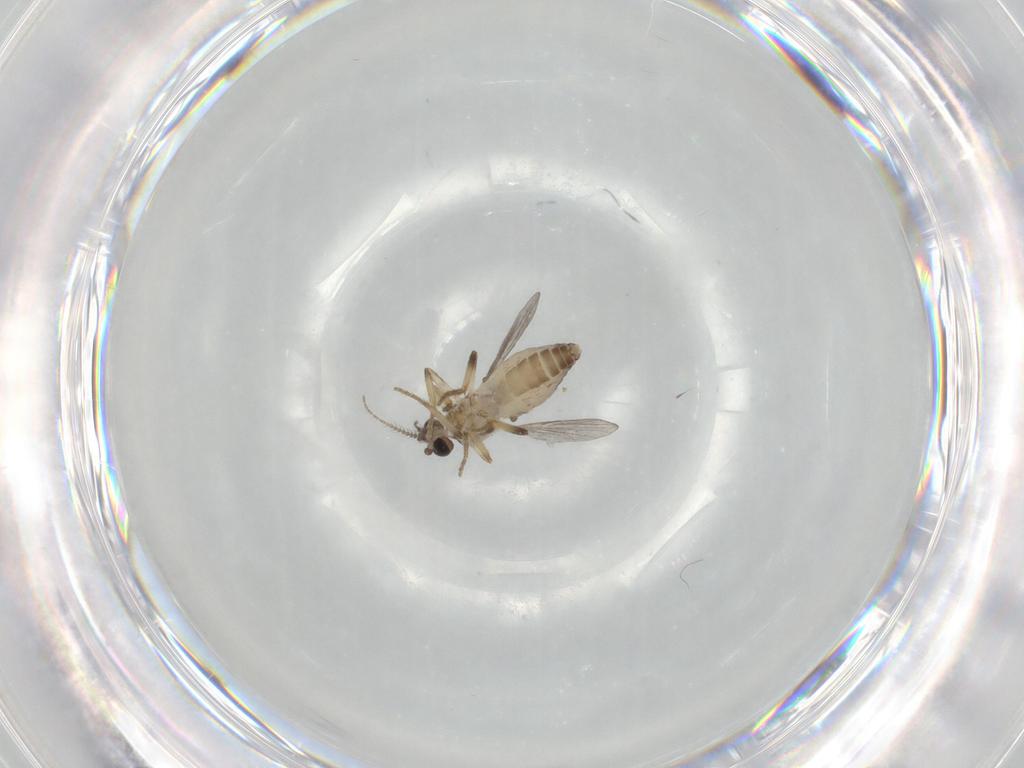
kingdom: Animalia
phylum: Arthropoda
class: Insecta
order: Diptera
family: Ceratopogonidae
